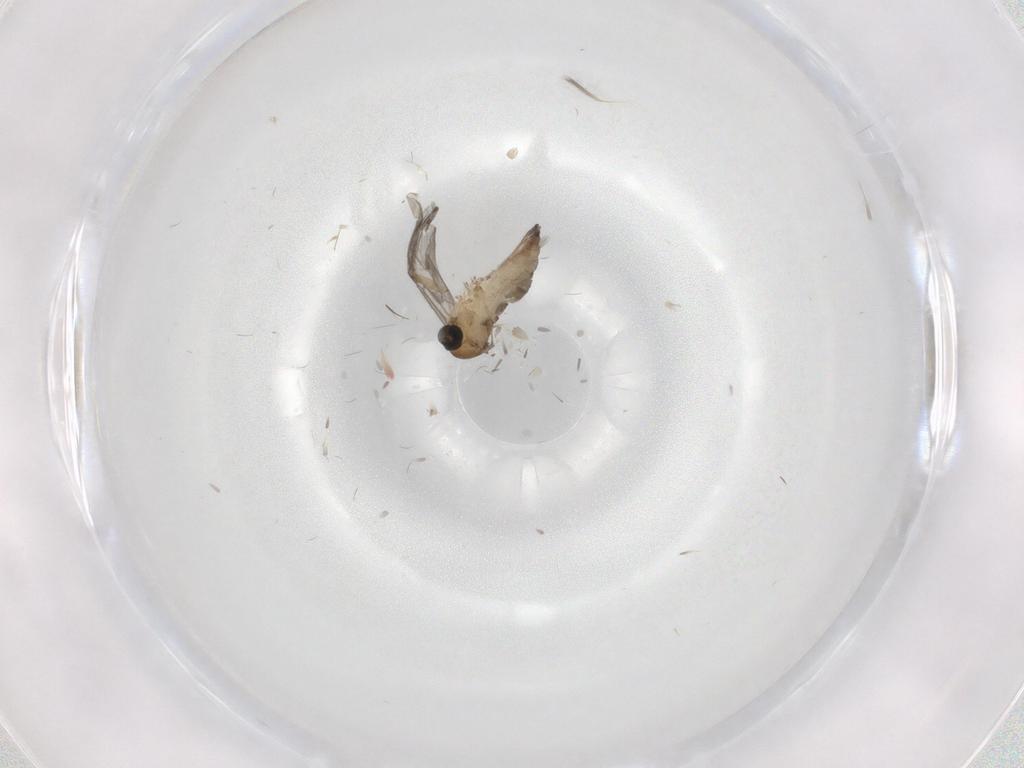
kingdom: Animalia
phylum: Arthropoda
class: Insecta
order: Diptera
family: Sciaridae
